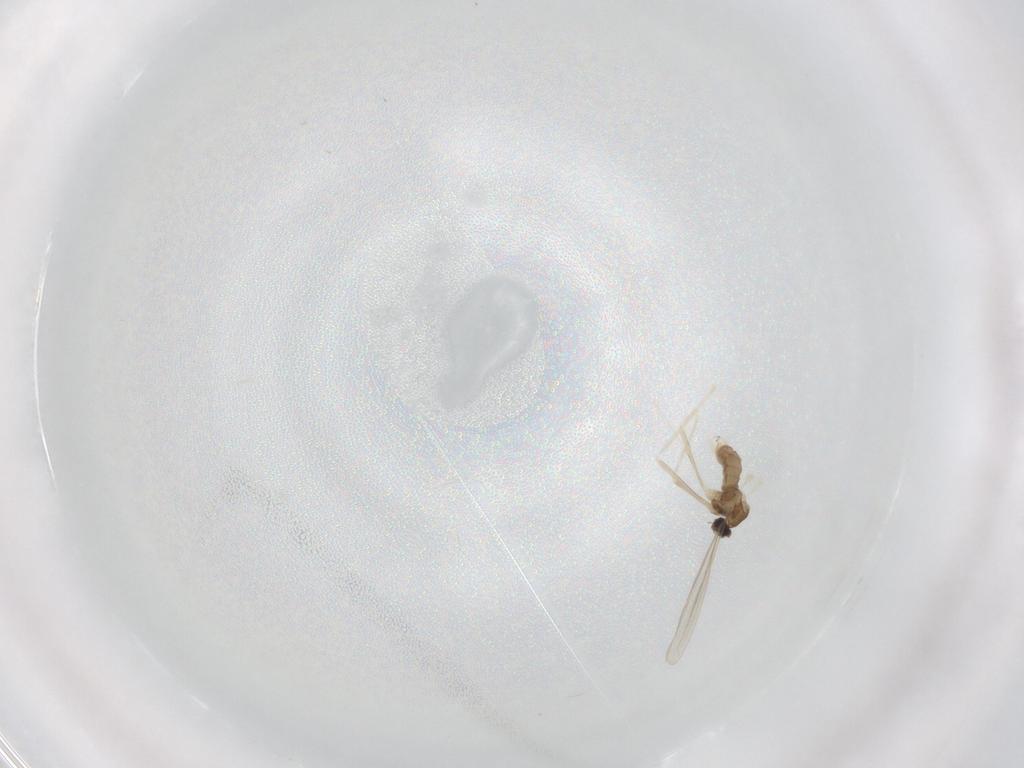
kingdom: Animalia
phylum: Arthropoda
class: Insecta
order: Diptera
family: Cecidomyiidae
